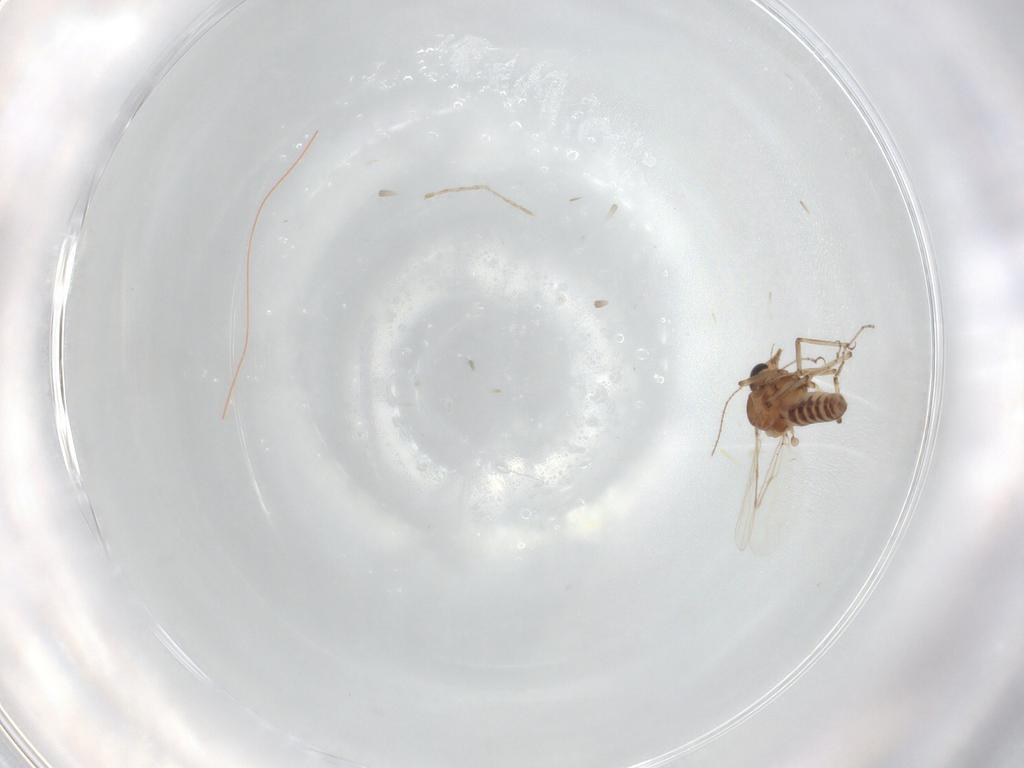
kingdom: Animalia
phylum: Arthropoda
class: Insecta
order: Diptera
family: Ceratopogonidae
